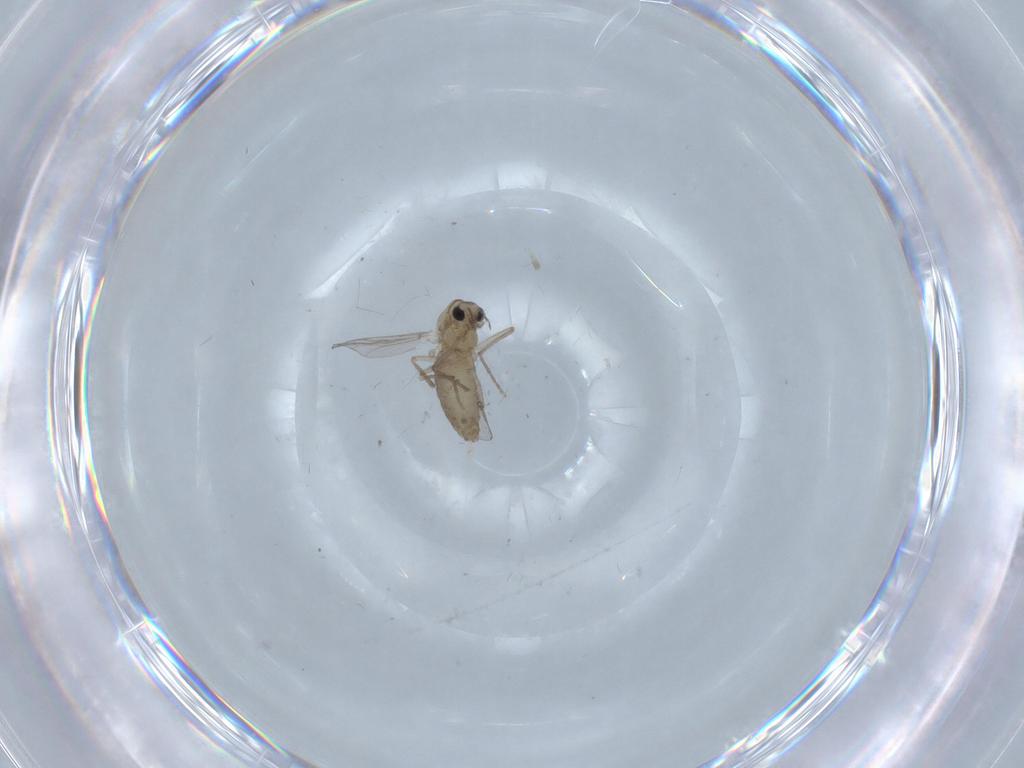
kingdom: Animalia
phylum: Arthropoda
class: Insecta
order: Diptera
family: Chironomidae
